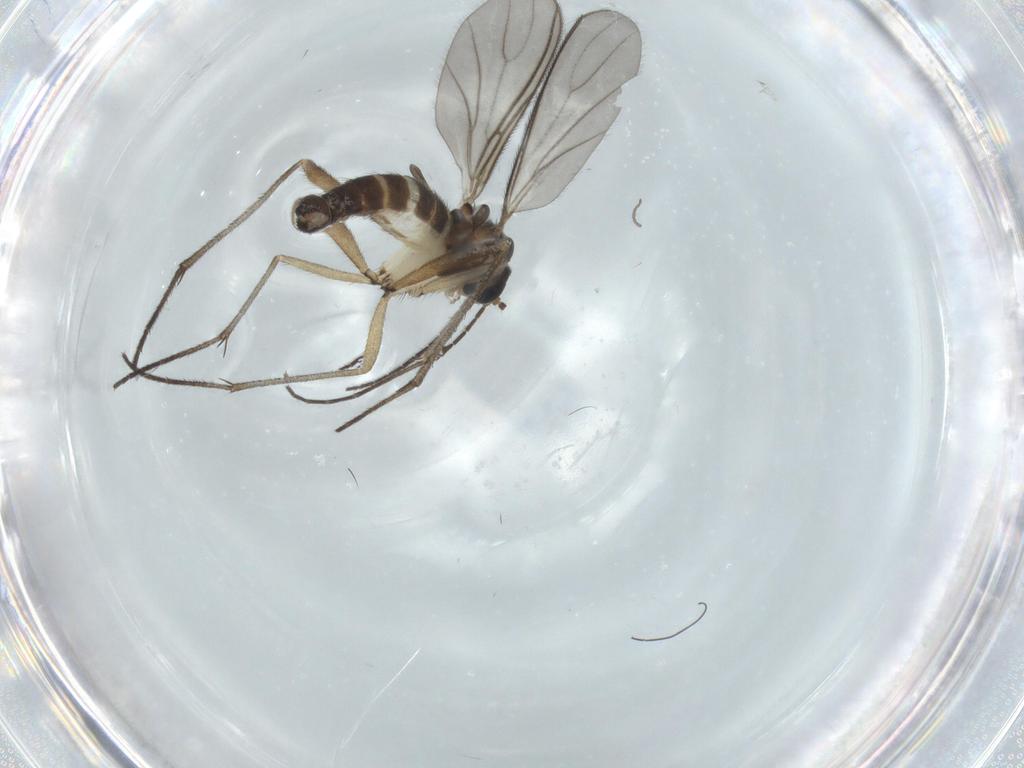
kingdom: Animalia
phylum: Arthropoda
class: Insecta
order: Diptera
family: Sciaridae
